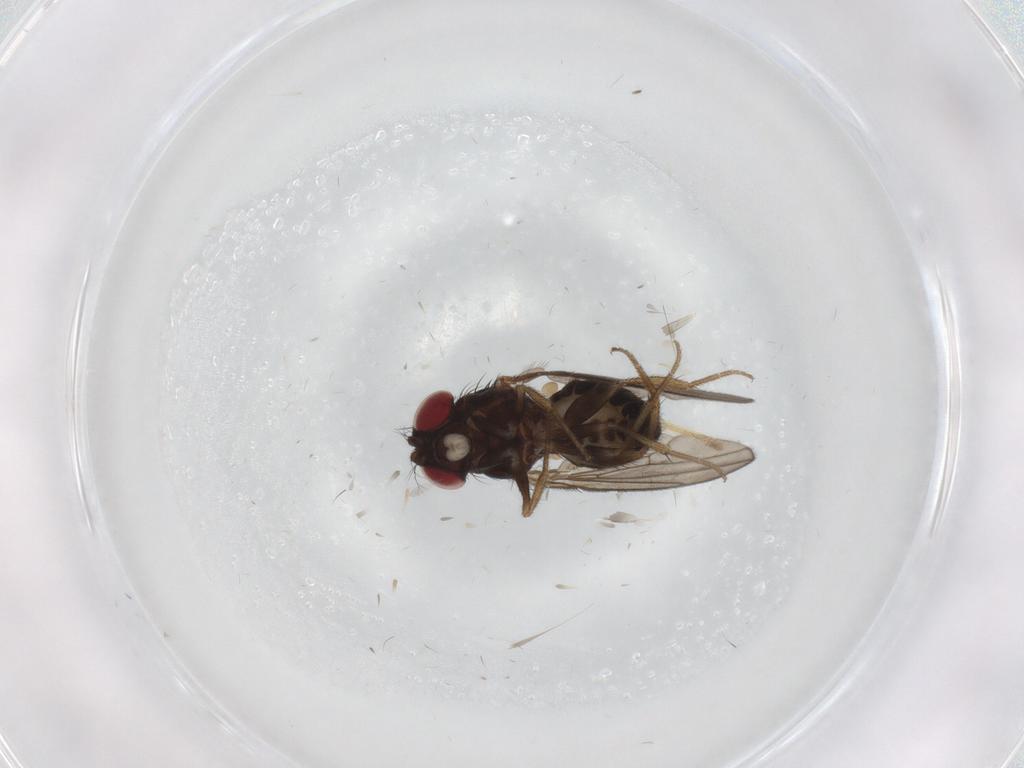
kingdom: Animalia
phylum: Arthropoda
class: Insecta
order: Diptera
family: Drosophilidae
